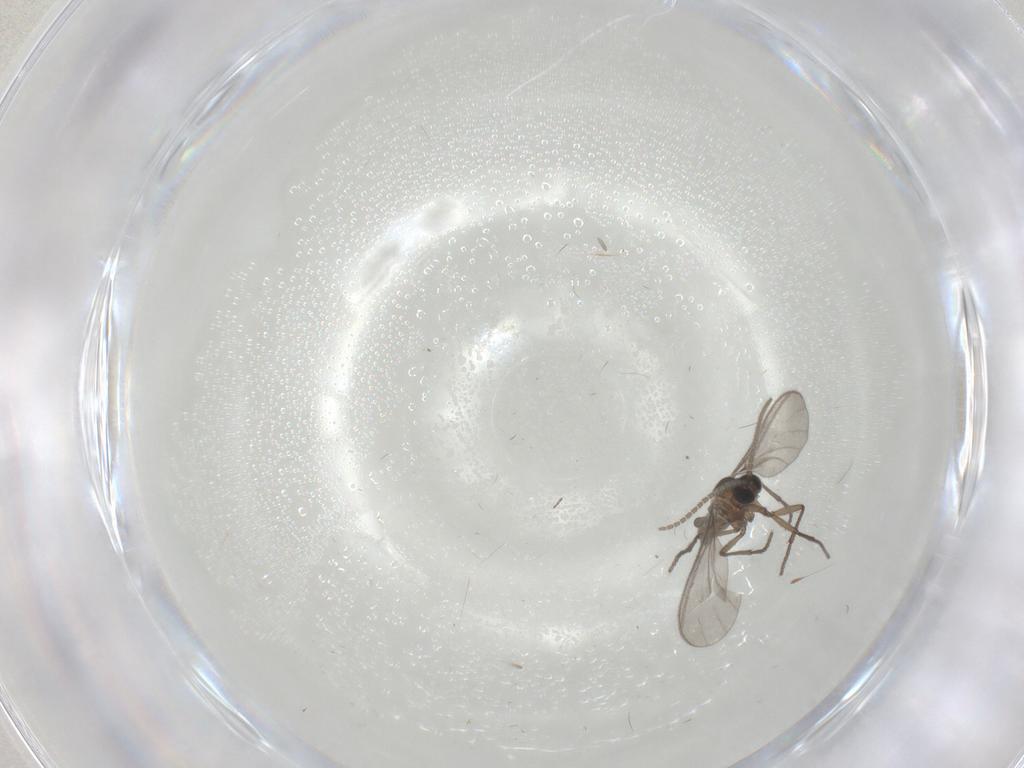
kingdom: Animalia
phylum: Arthropoda
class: Insecta
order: Diptera
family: Sciaridae
